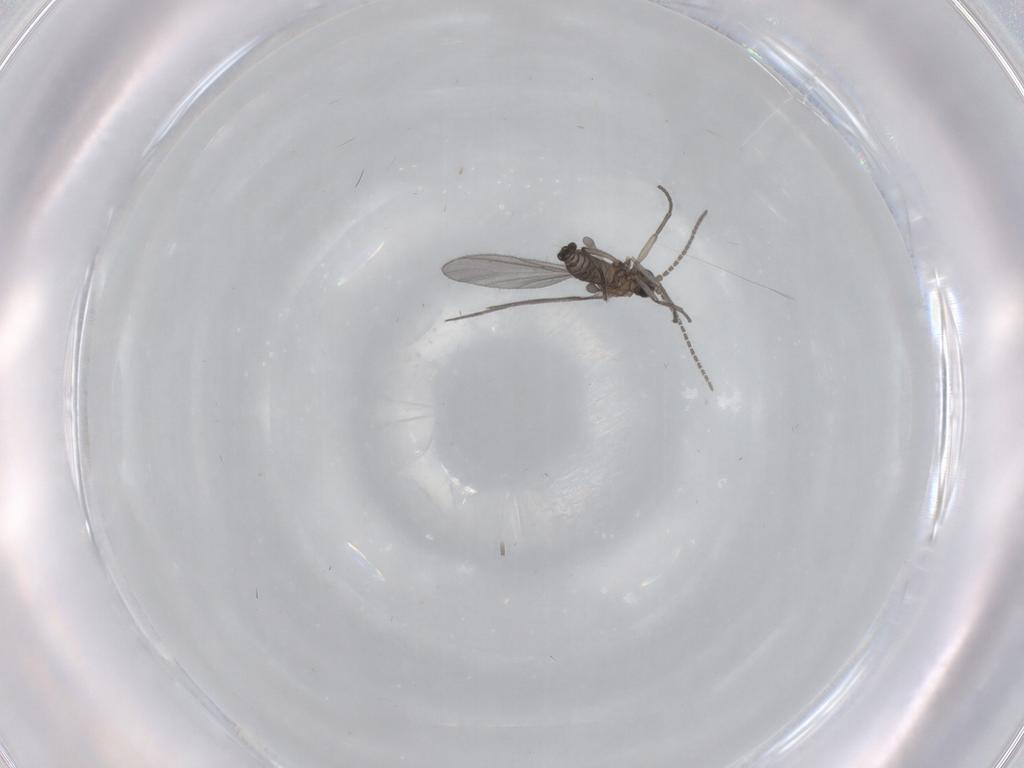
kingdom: Animalia
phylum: Arthropoda
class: Insecta
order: Diptera
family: Sciaridae
